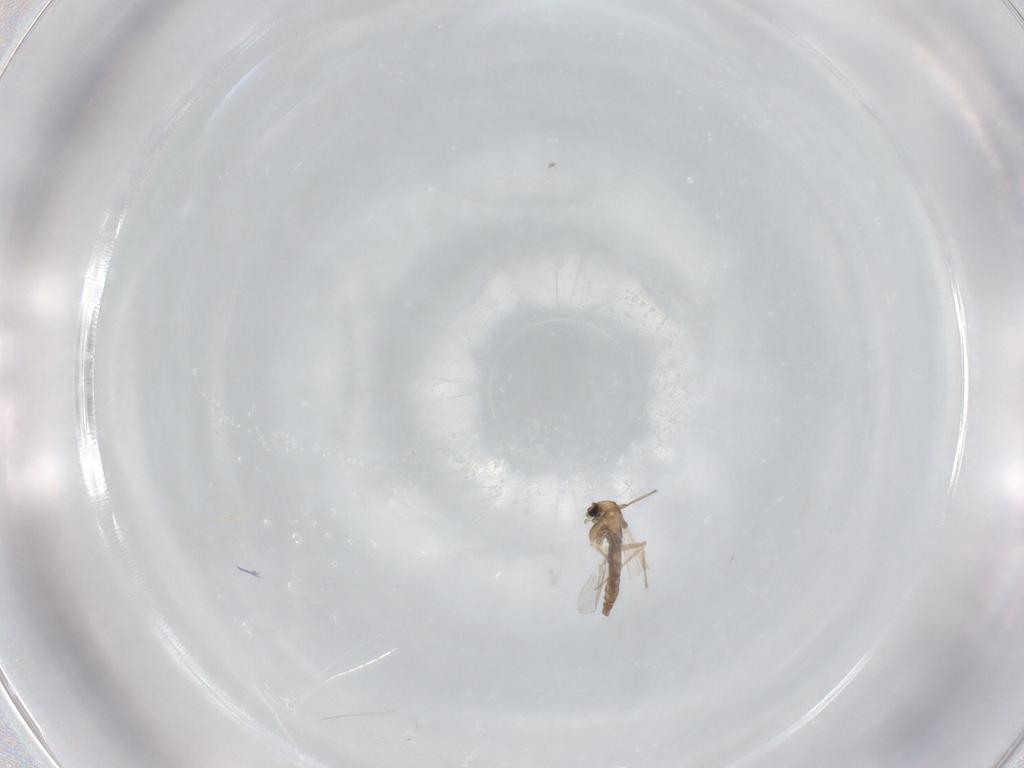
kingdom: Animalia
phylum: Arthropoda
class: Insecta
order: Diptera
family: Chironomidae
